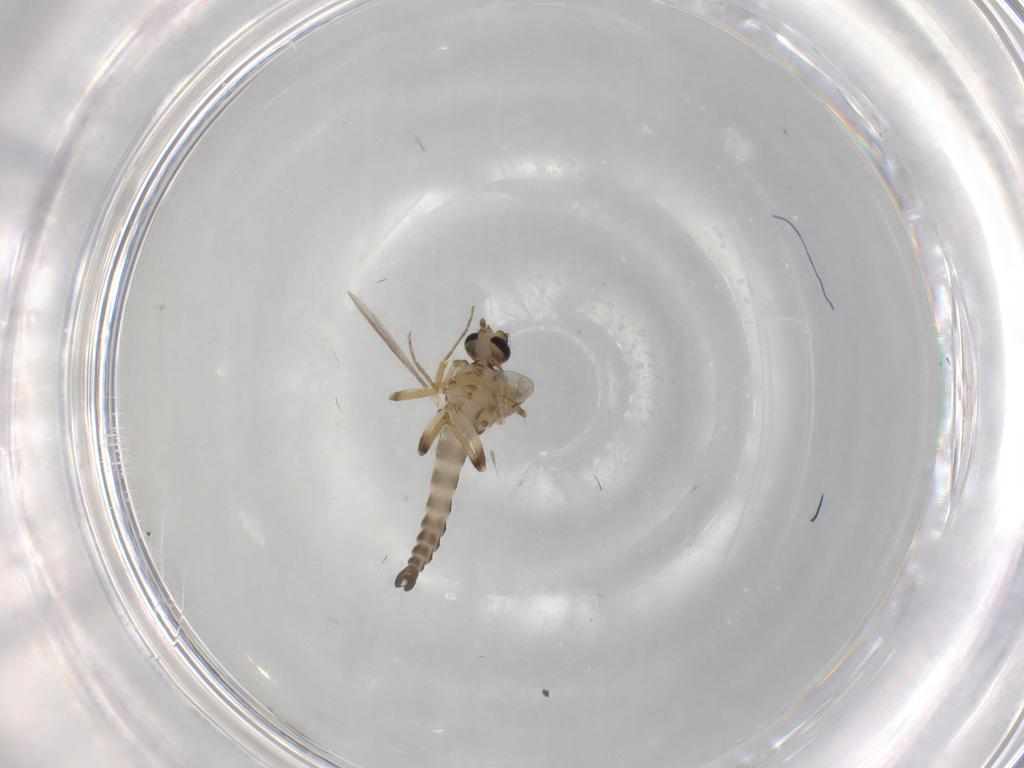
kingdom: Animalia
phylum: Arthropoda
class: Insecta
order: Diptera
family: Ceratopogonidae
